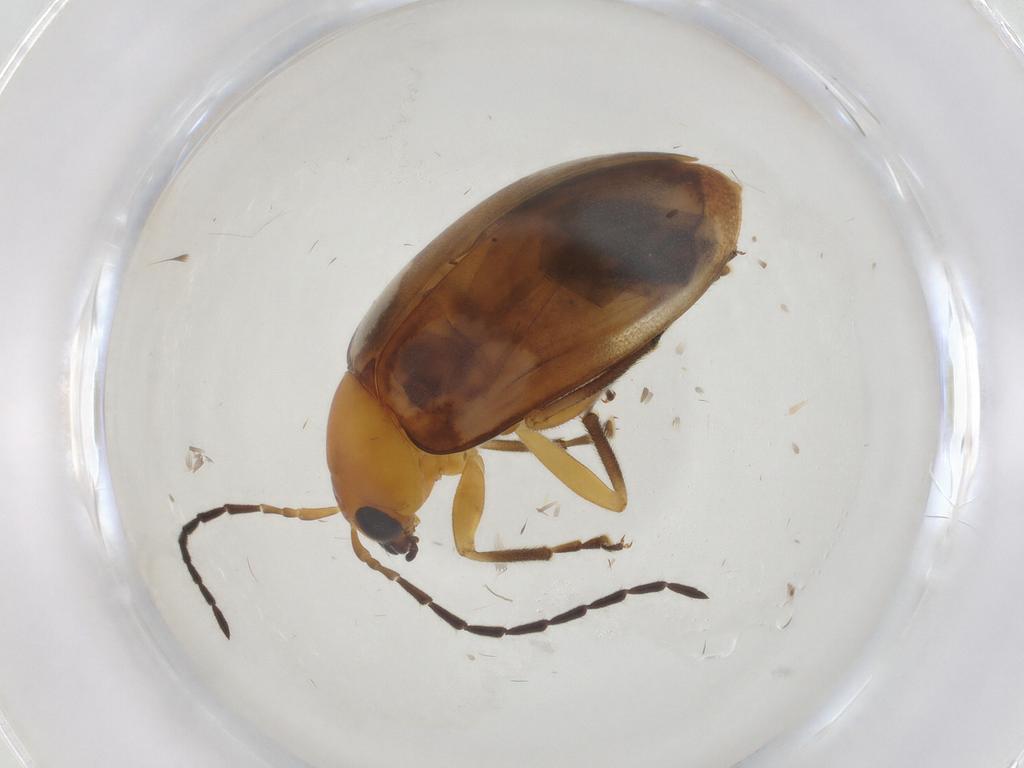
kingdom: Animalia
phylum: Arthropoda
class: Insecta
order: Coleoptera
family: Chrysomelidae
